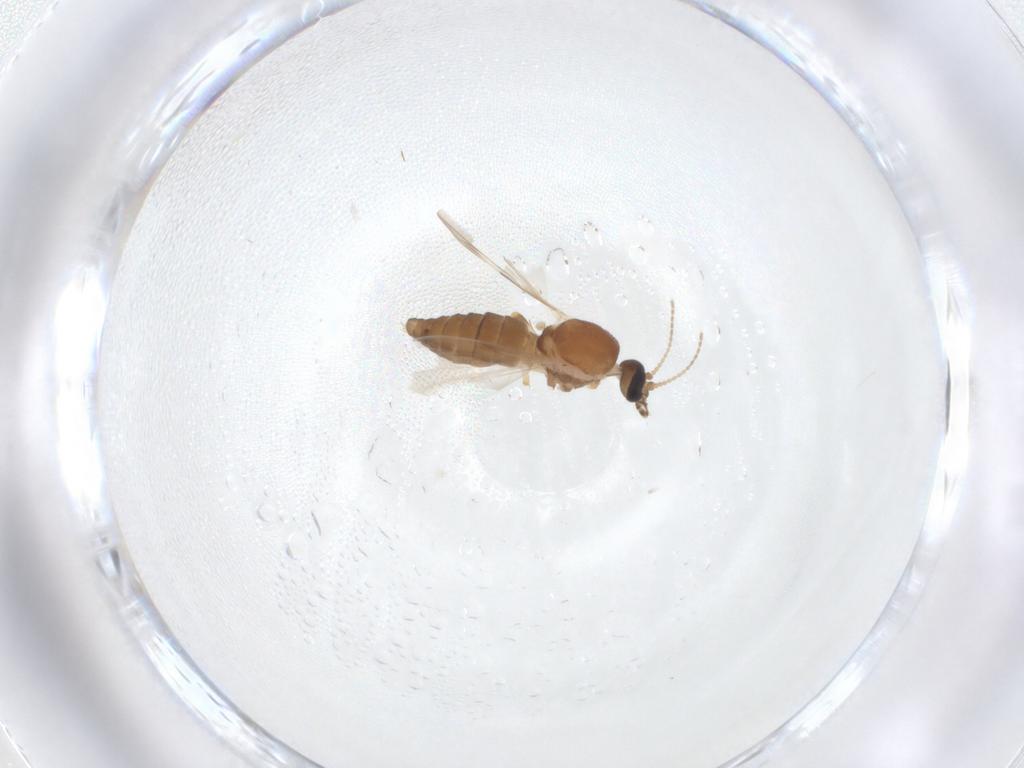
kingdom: Animalia
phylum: Arthropoda
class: Insecta
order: Diptera
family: Ceratopogonidae
